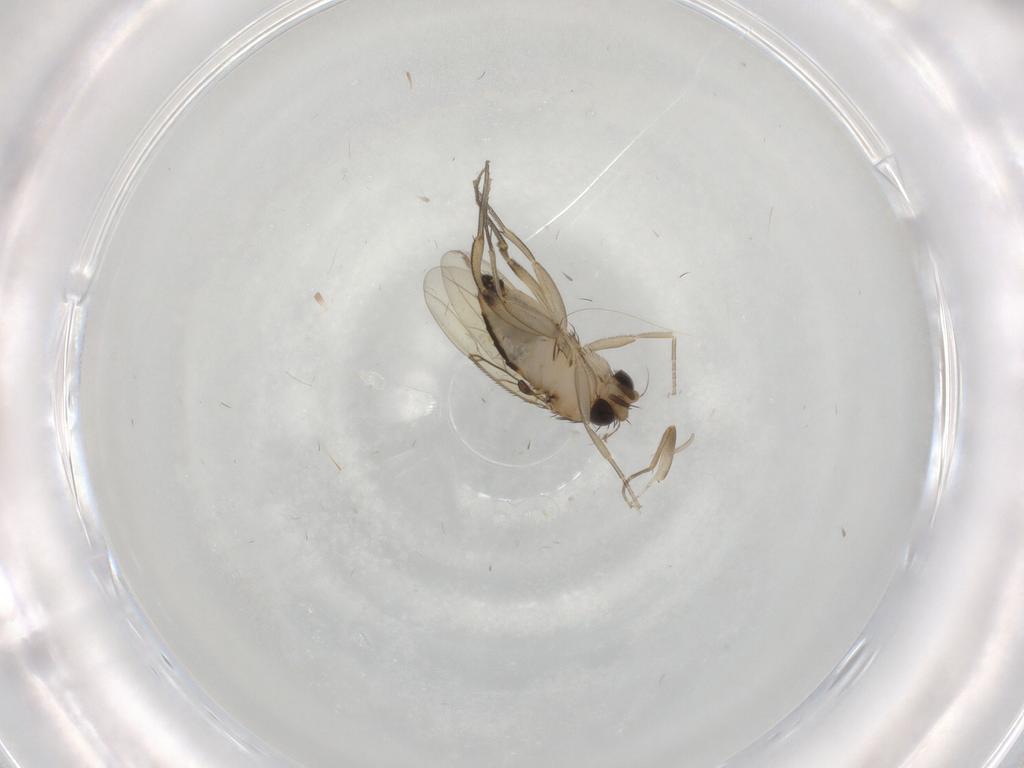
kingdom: Animalia
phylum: Arthropoda
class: Insecta
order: Diptera
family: Phoridae
